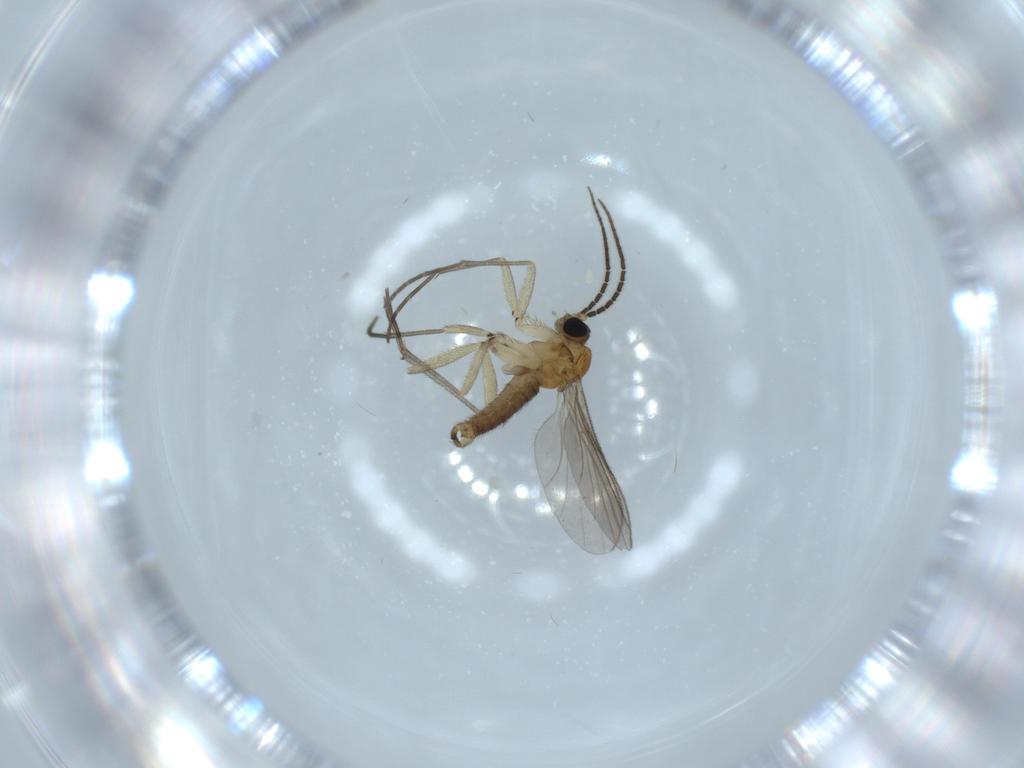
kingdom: Animalia
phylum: Arthropoda
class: Insecta
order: Diptera
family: Sciaridae
